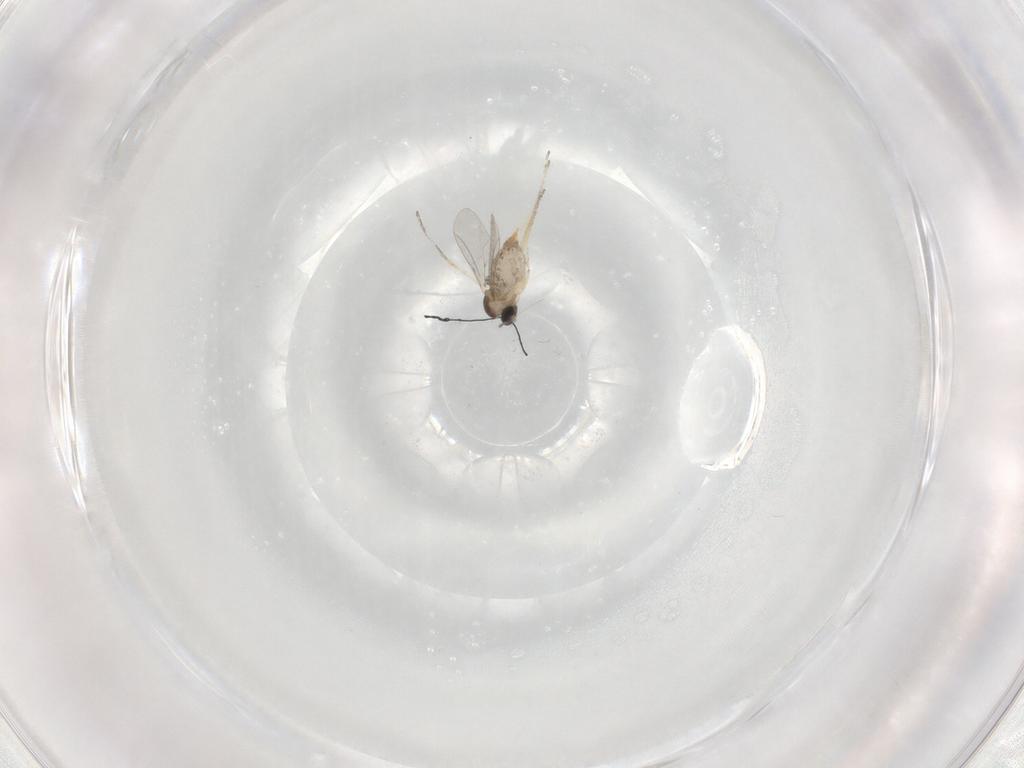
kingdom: Animalia
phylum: Arthropoda
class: Insecta
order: Diptera
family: Cecidomyiidae
